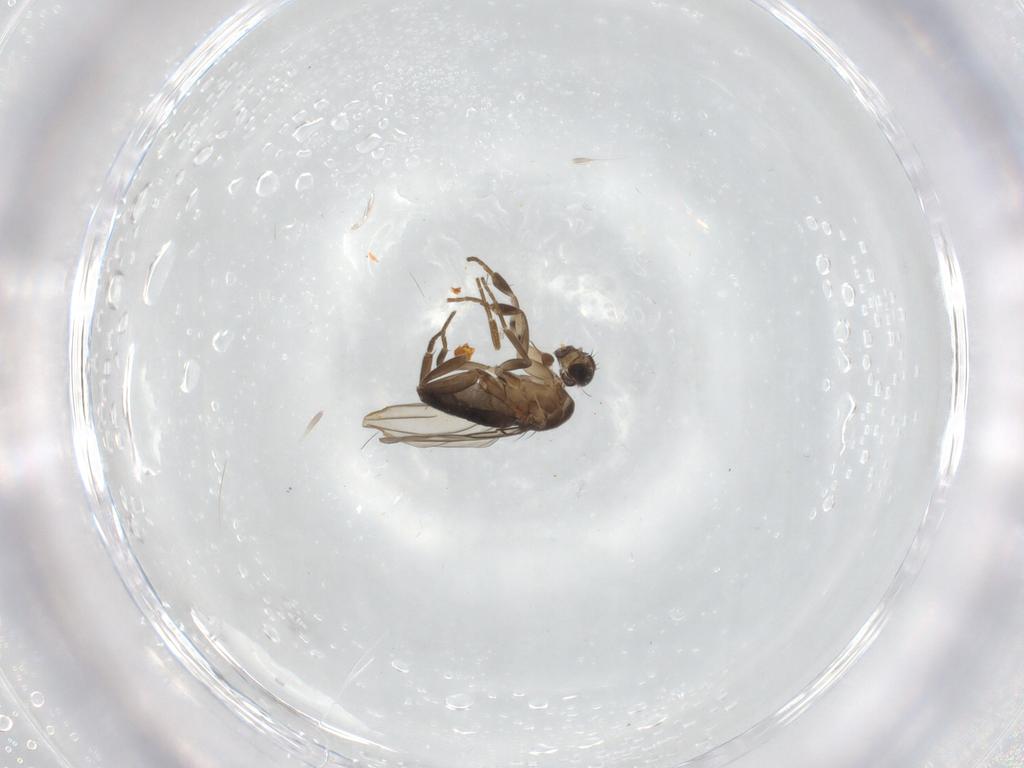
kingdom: Animalia
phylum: Arthropoda
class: Insecta
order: Diptera
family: Phoridae
